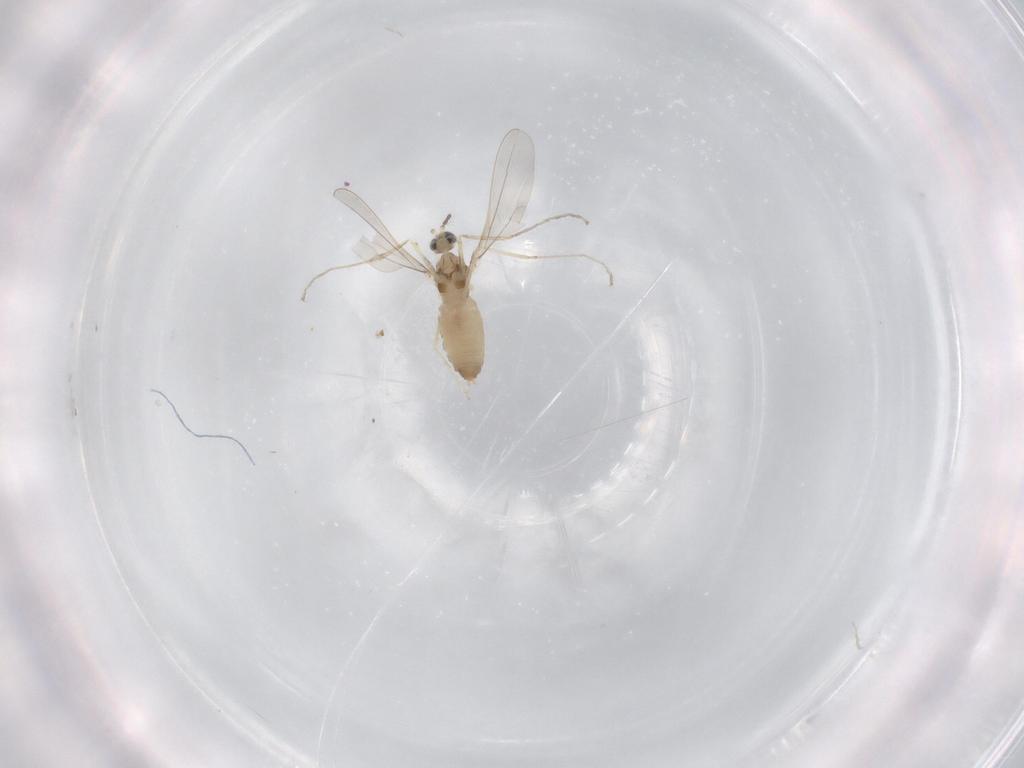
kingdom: Animalia
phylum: Arthropoda
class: Insecta
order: Diptera
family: Cecidomyiidae
